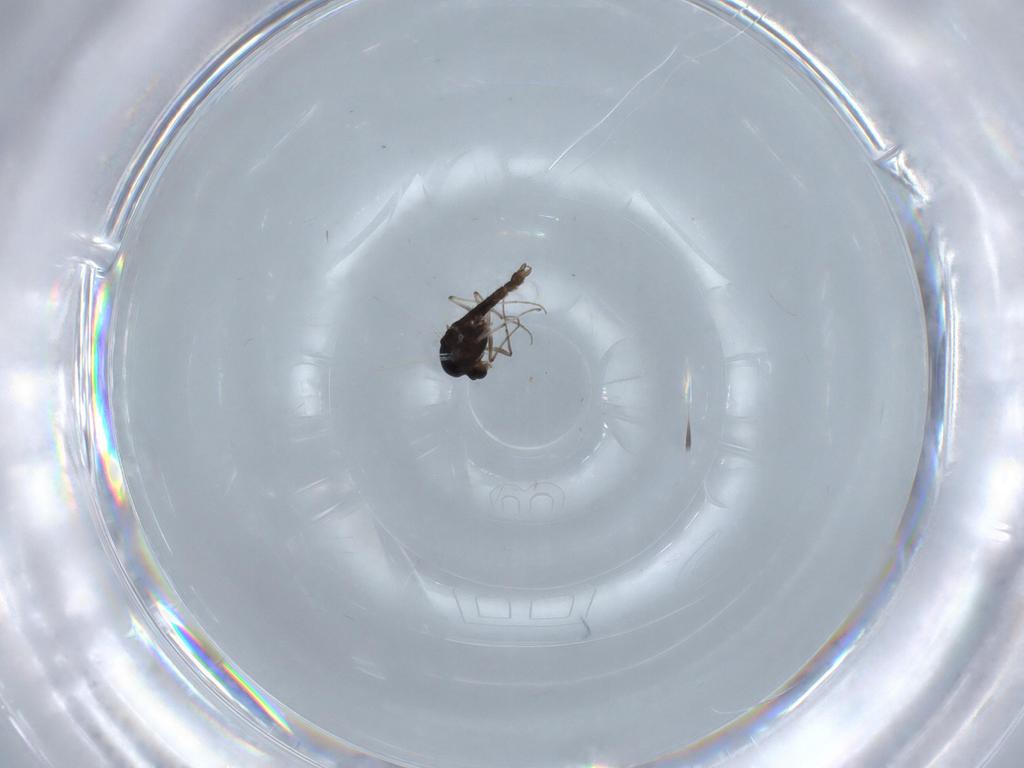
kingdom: Animalia
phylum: Arthropoda
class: Insecta
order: Diptera
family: Chironomidae
